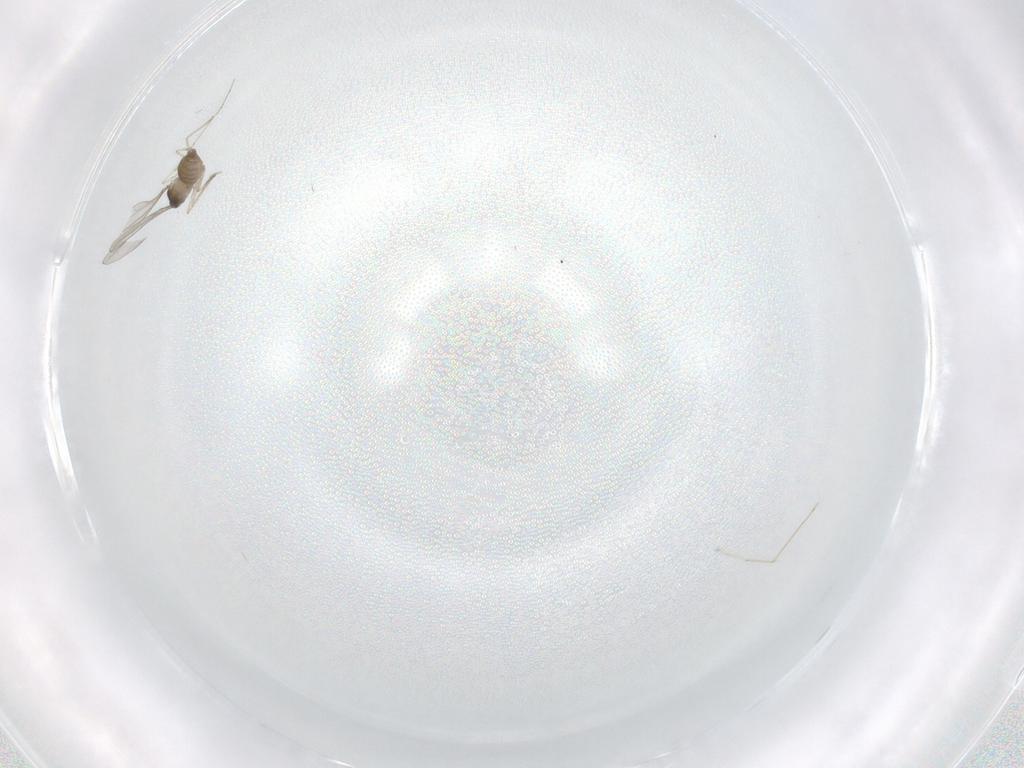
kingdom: Animalia
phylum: Arthropoda
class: Insecta
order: Diptera
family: Cecidomyiidae
